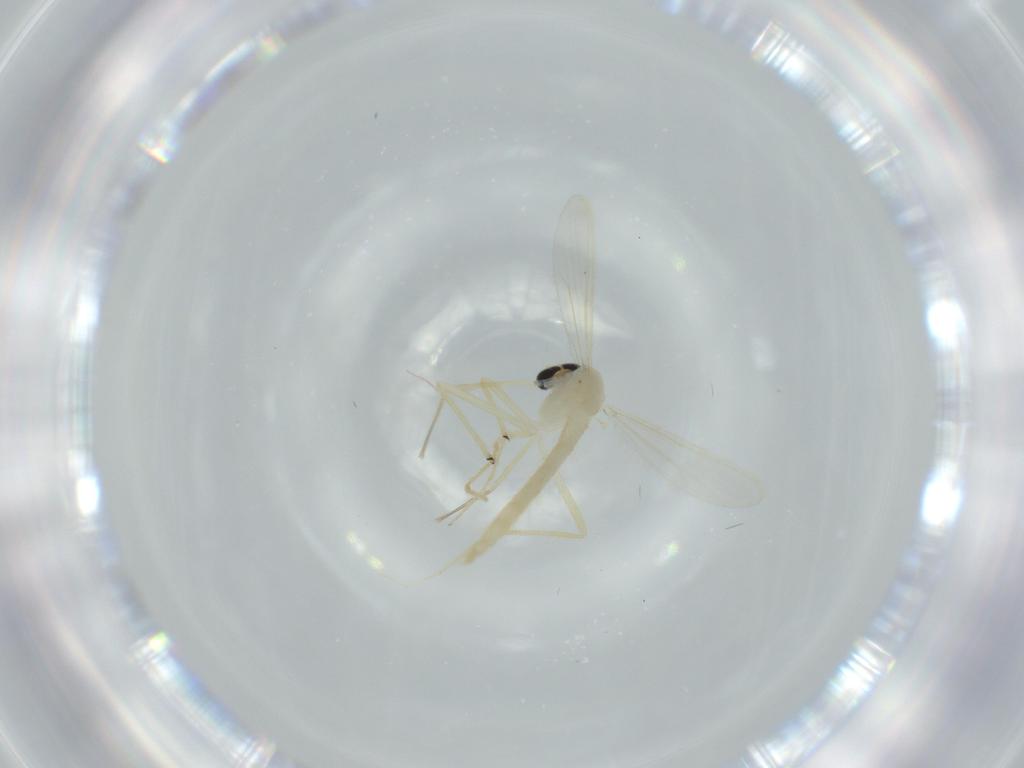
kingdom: Animalia
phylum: Arthropoda
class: Insecta
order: Diptera
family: Chironomidae
